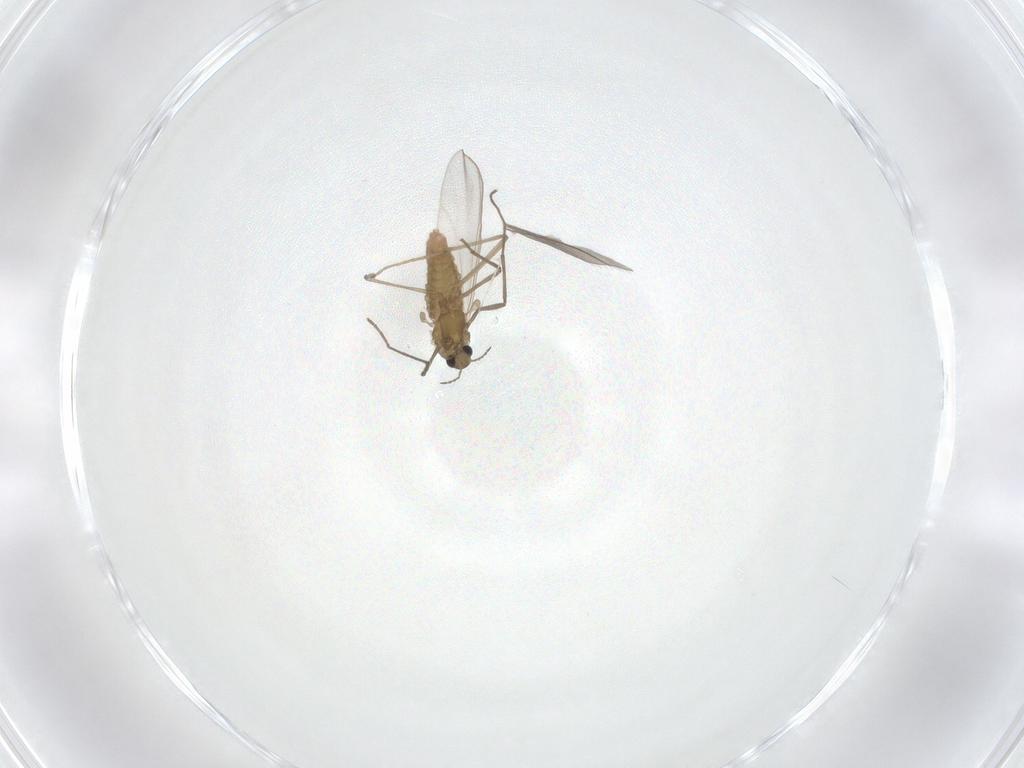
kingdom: Animalia
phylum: Arthropoda
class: Insecta
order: Diptera
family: Chironomidae
